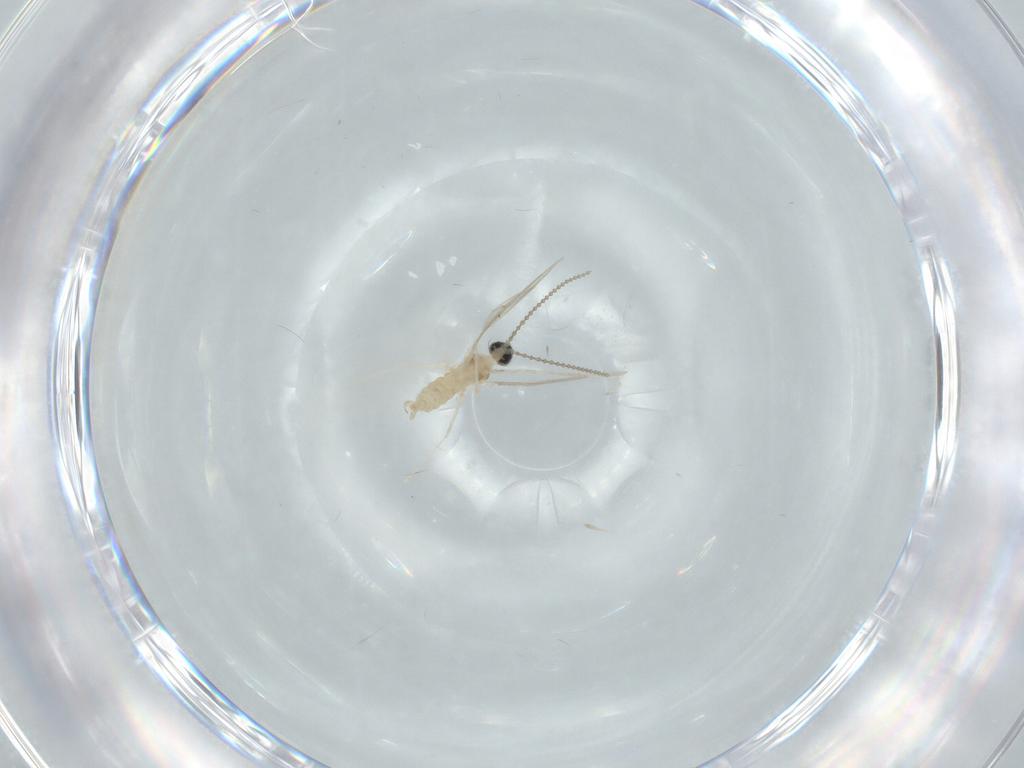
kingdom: Animalia
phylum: Arthropoda
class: Insecta
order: Diptera
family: Cecidomyiidae
